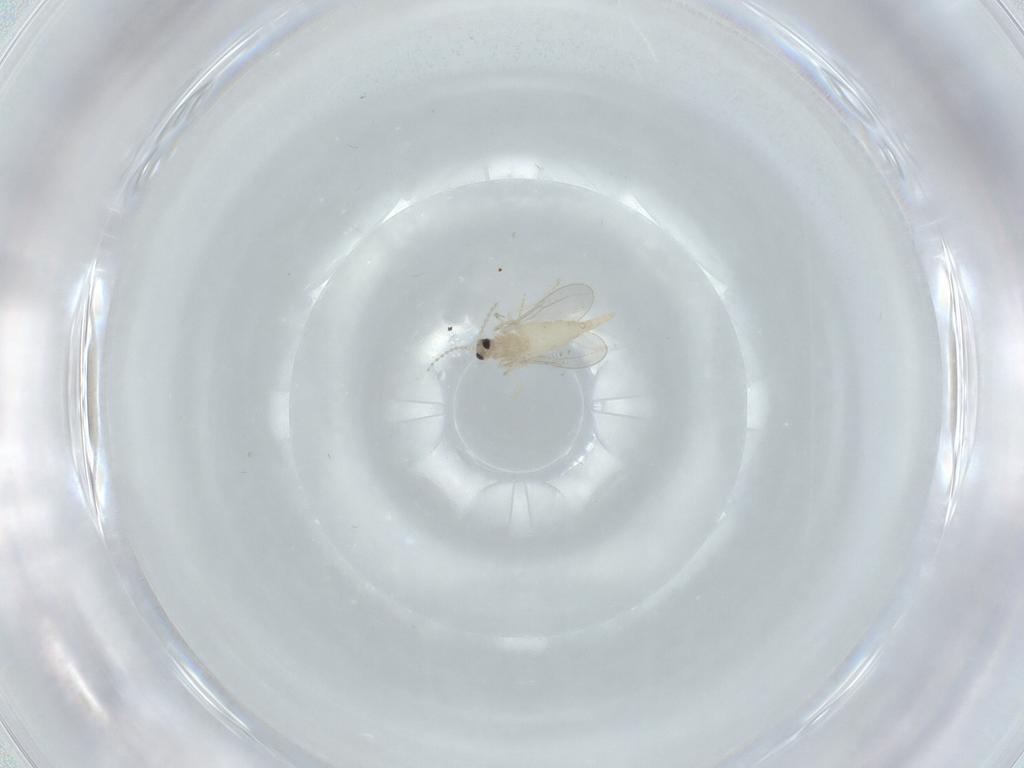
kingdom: Animalia
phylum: Arthropoda
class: Insecta
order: Diptera
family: Cecidomyiidae
